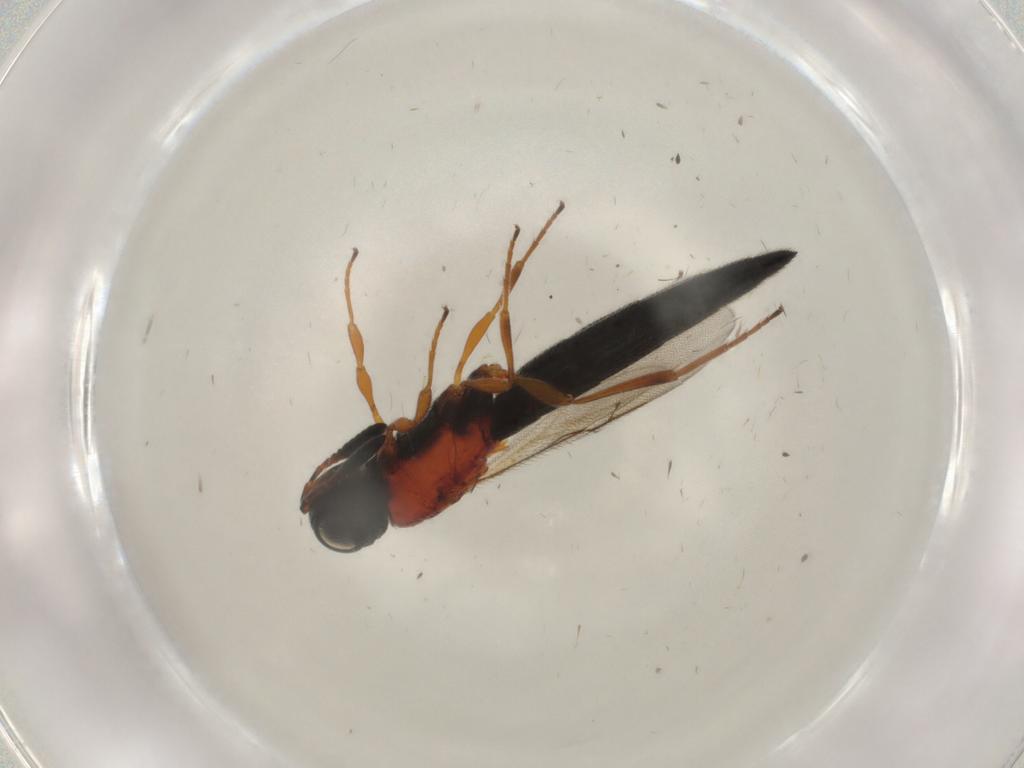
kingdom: Animalia
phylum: Arthropoda
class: Insecta
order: Hymenoptera
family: Scelionidae
